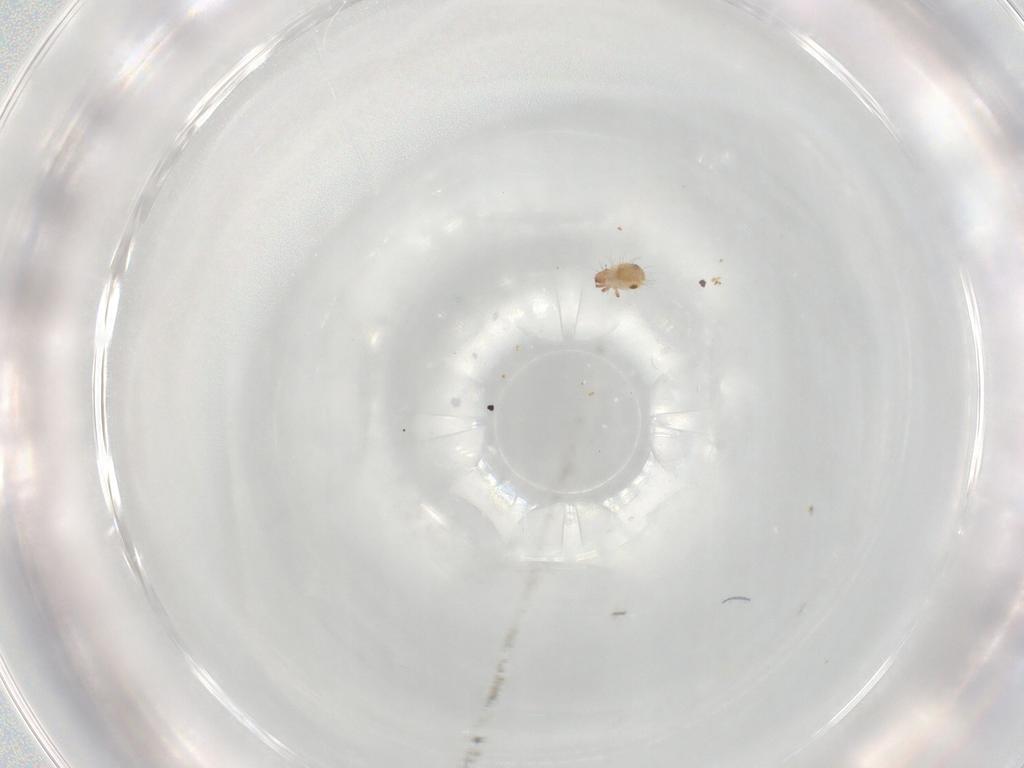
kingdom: Animalia
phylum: Arthropoda
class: Arachnida
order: Sarcoptiformes
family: Humerobatidae
